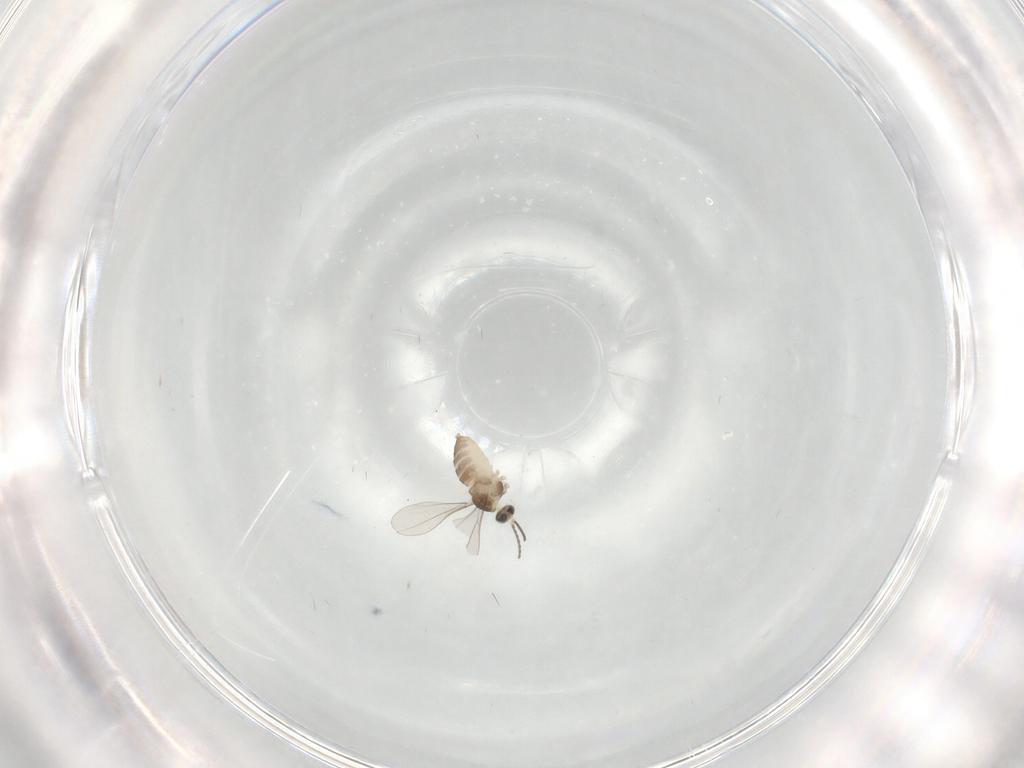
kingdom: Animalia
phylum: Arthropoda
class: Insecta
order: Diptera
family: Phoridae
